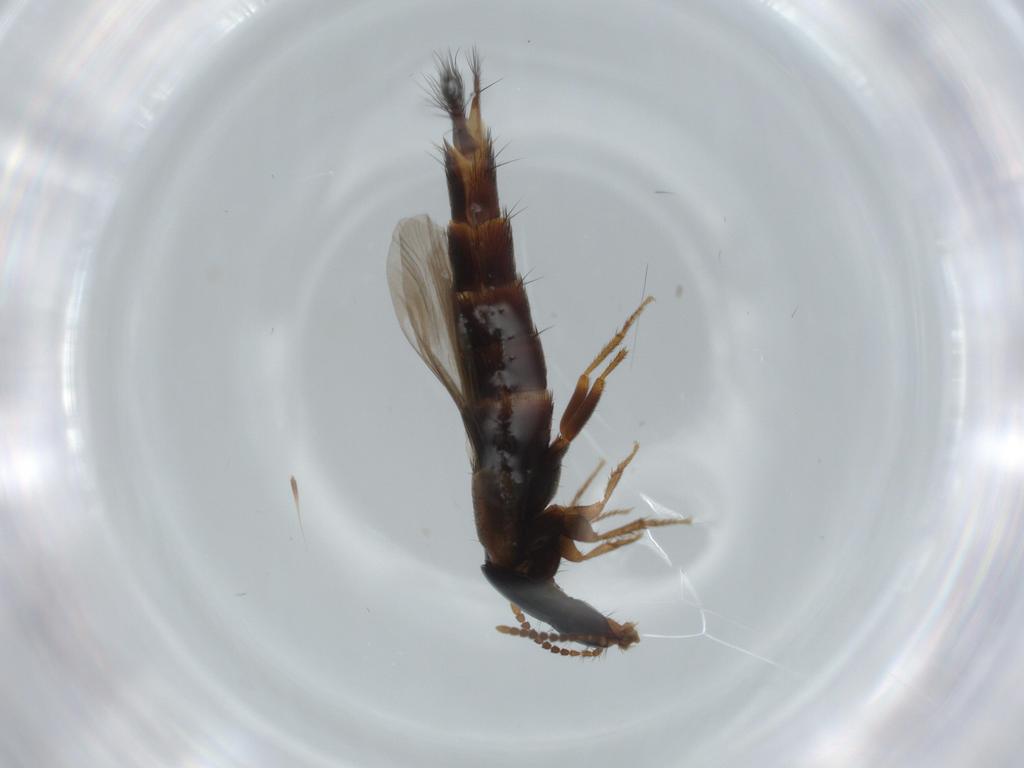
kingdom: Animalia
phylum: Arthropoda
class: Insecta
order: Coleoptera
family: Staphylinidae
